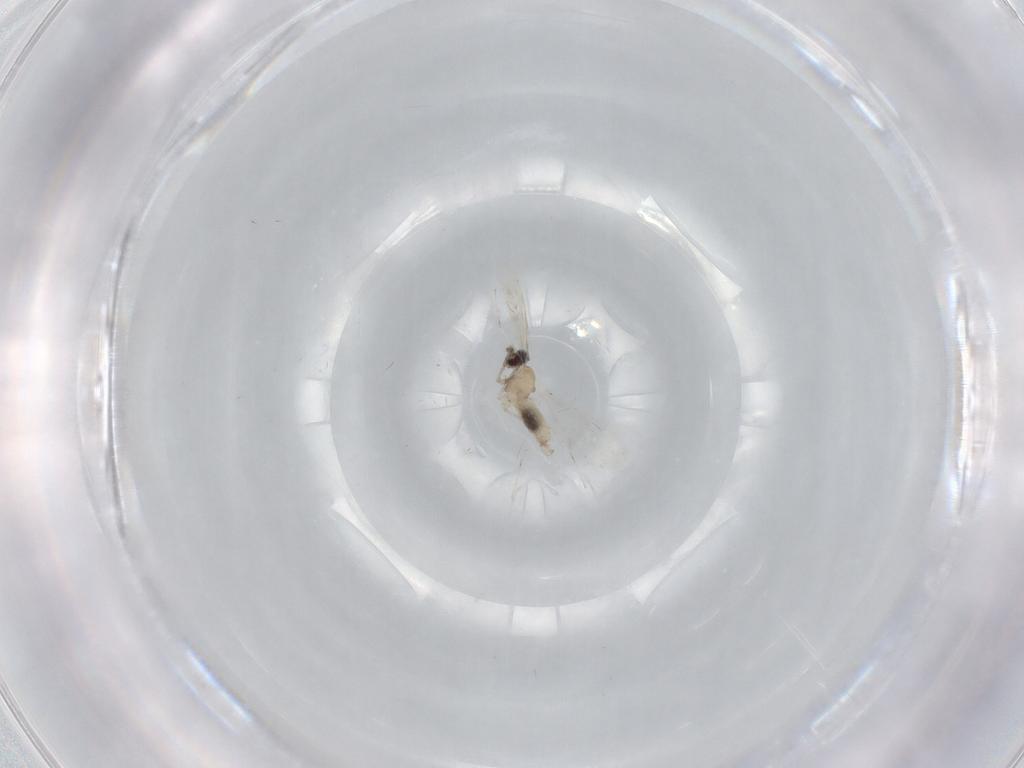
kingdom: Animalia
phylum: Arthropoda
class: Insecta
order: Diptera
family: Cecidomyiidae
